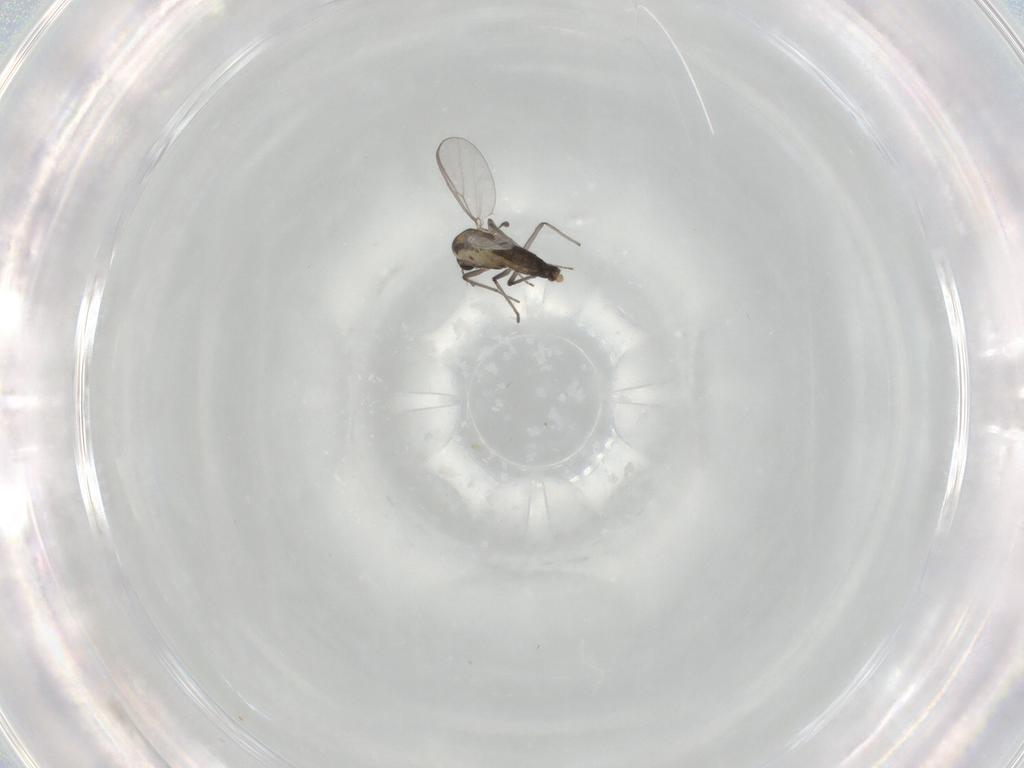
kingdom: Animalia
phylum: Arthropoda
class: Insecta
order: Diptera
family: Chironomidae
